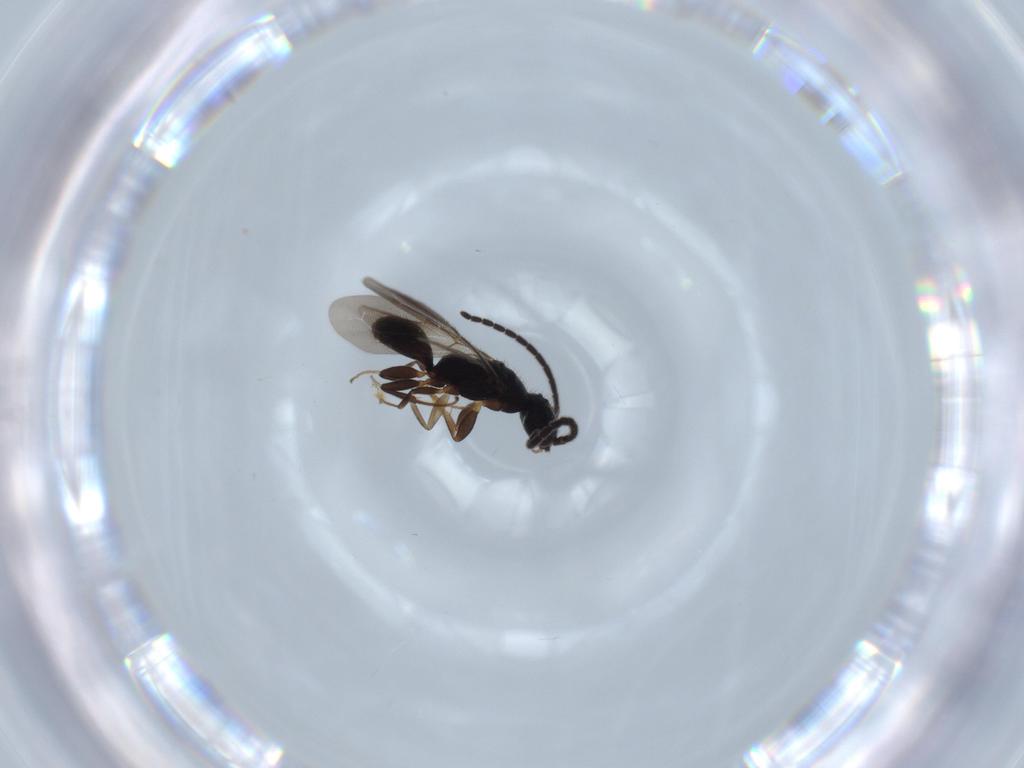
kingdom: Animalia
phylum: Arthropoda
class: Insecta
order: Hymenoptera
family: Bethylidae
